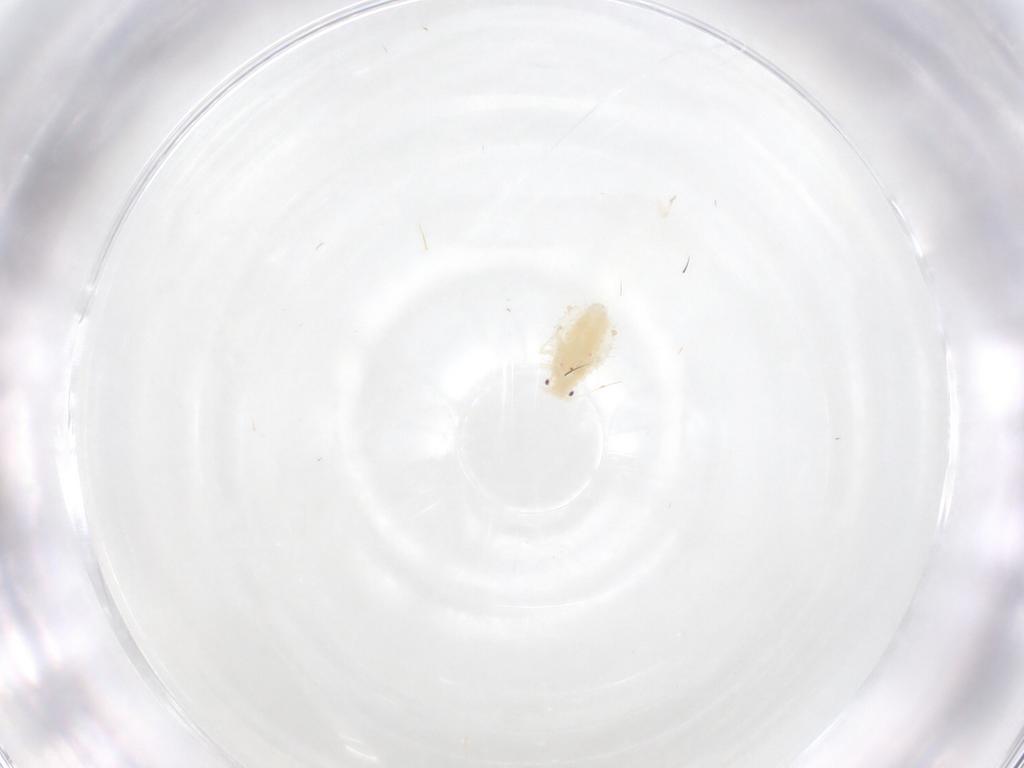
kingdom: Animalia
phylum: Arthropoda
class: Insecta
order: Hemiptera
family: Aphididae
